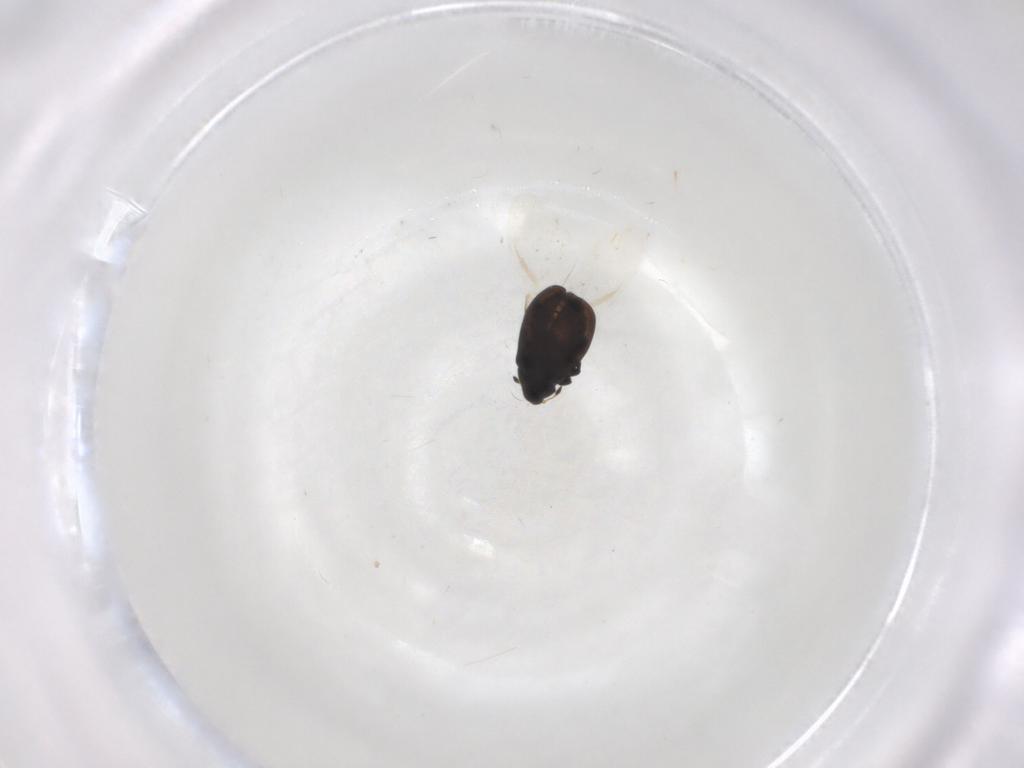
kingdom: Animalia
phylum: Arthropoda
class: Insecta
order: Coleoptera
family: Curculionidae
